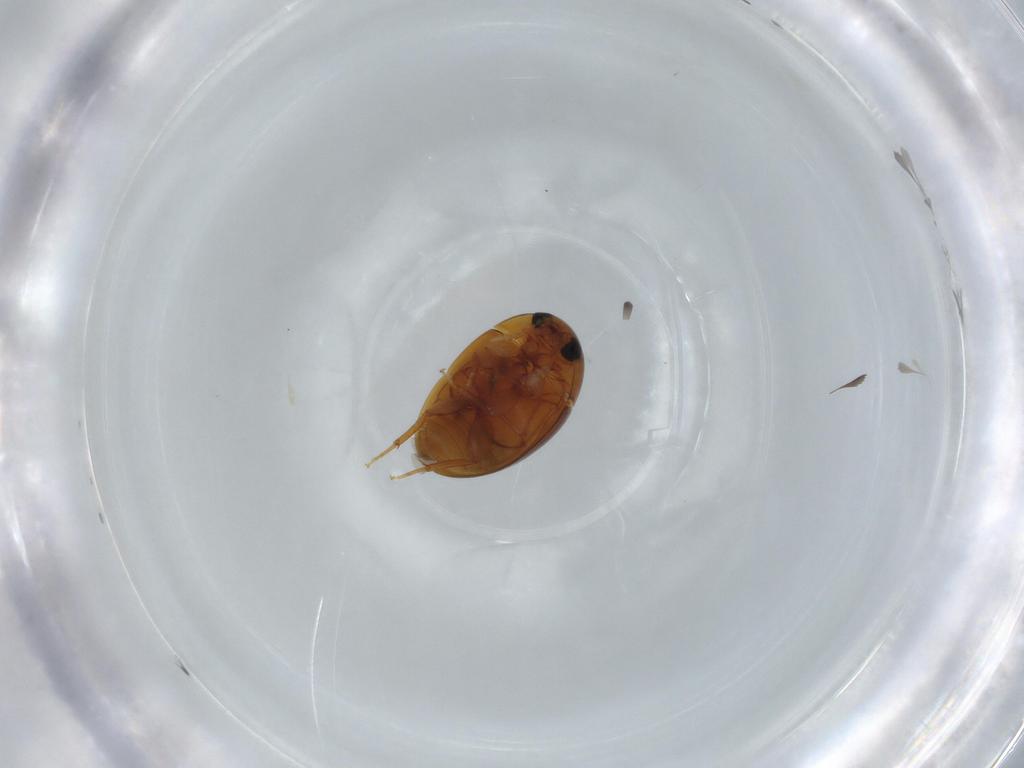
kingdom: Animalia
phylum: Arthropoda
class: Insecta
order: Coleoptera
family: Phalacridae
